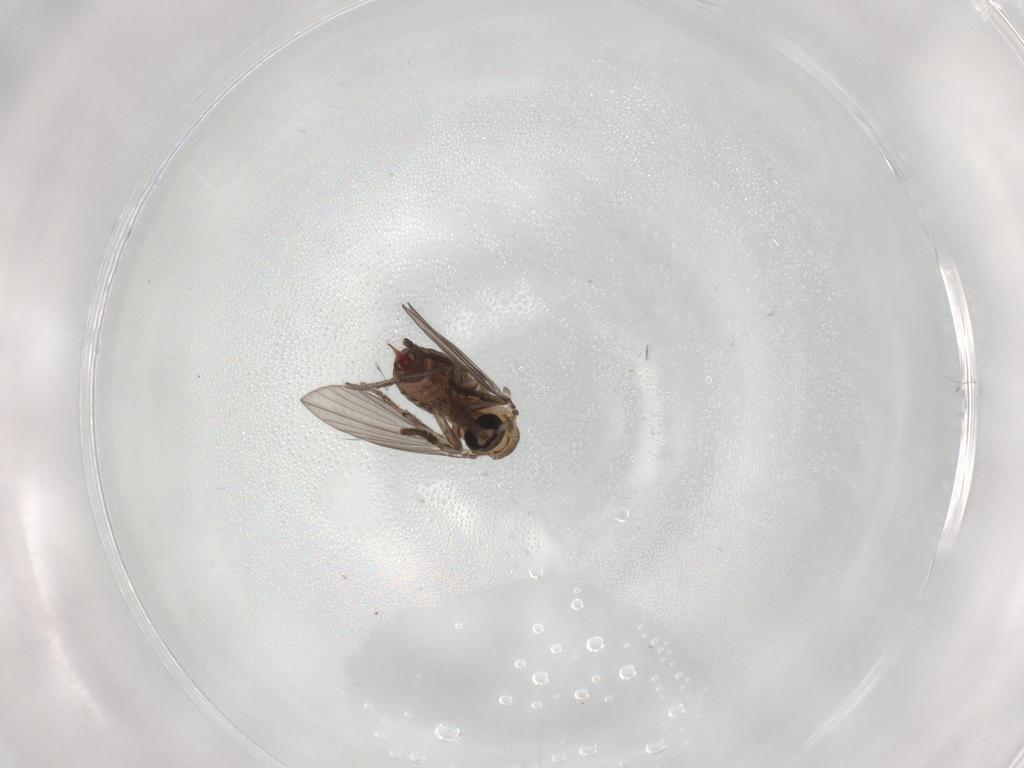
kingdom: Animalia
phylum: Arthropoda
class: Insecta
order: Diptera
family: Psychodidae
